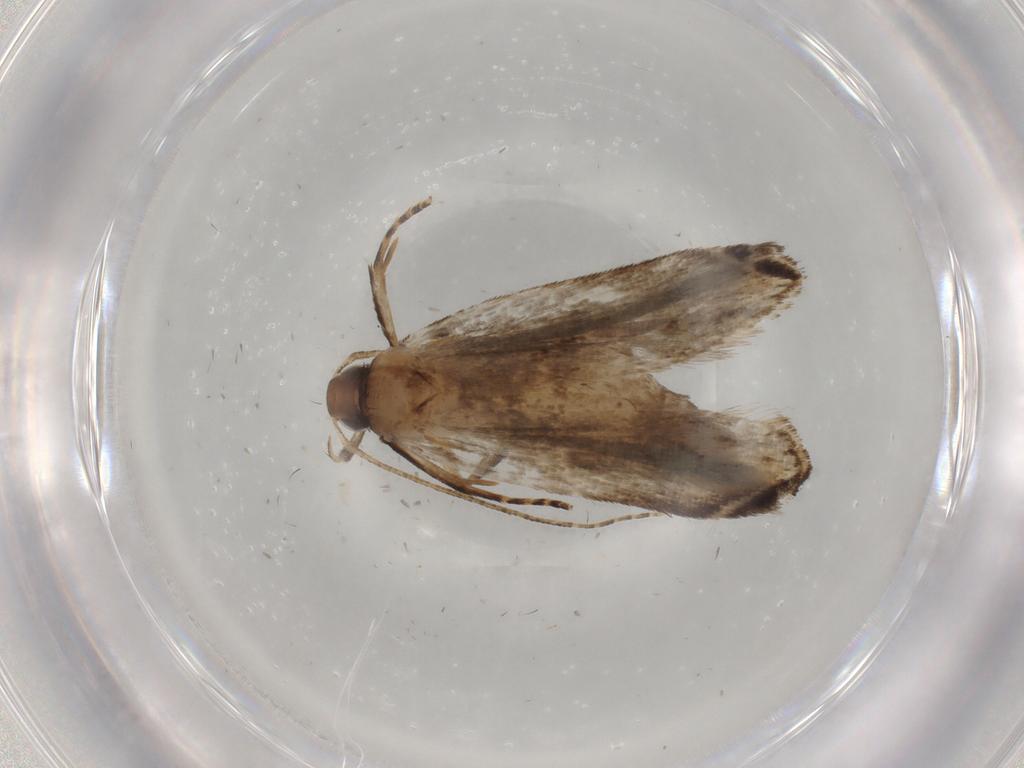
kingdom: Animalia
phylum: Arthropoda
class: Insecta
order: Lepidoptera
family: Gelechiidae
